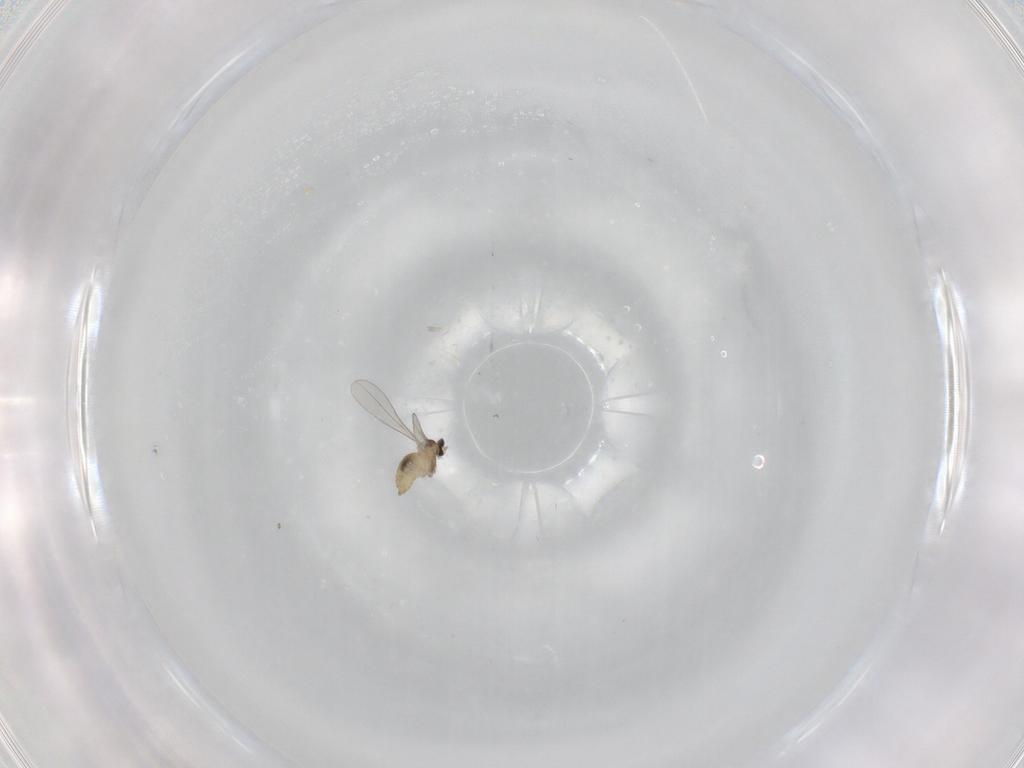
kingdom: Animalia
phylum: Arthropoda
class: Insecta
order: Diptera
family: Cecidomyiidae
